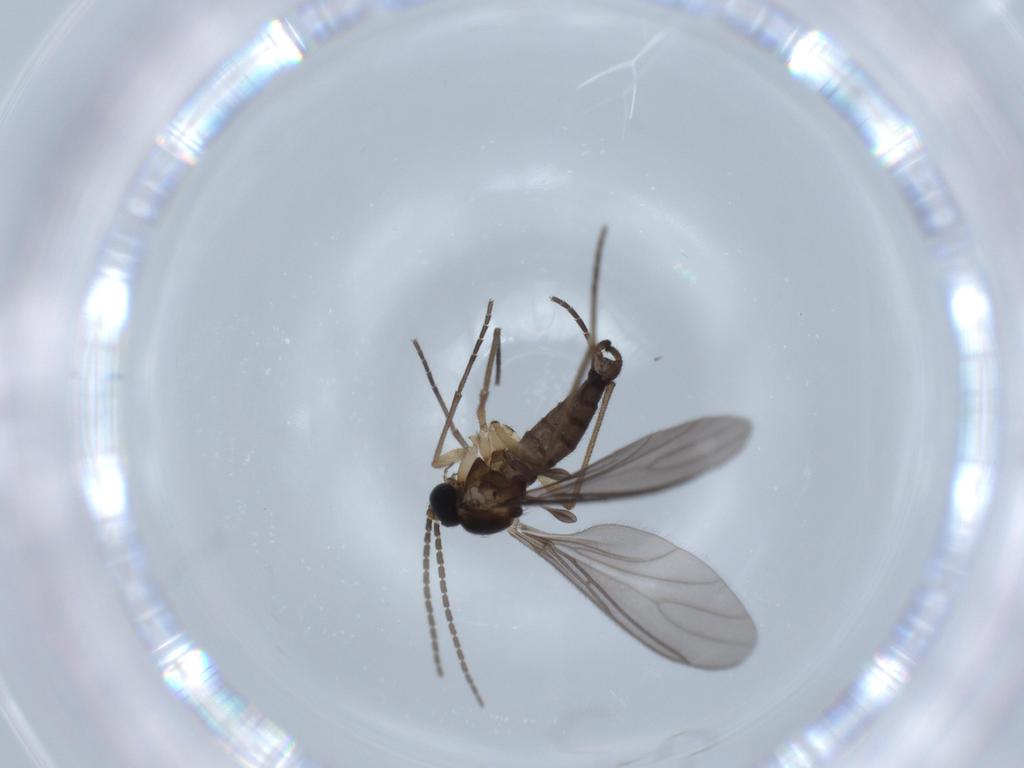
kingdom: Animalia
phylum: Arthropoda
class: Insecta
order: Diptera
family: Sciaridae
